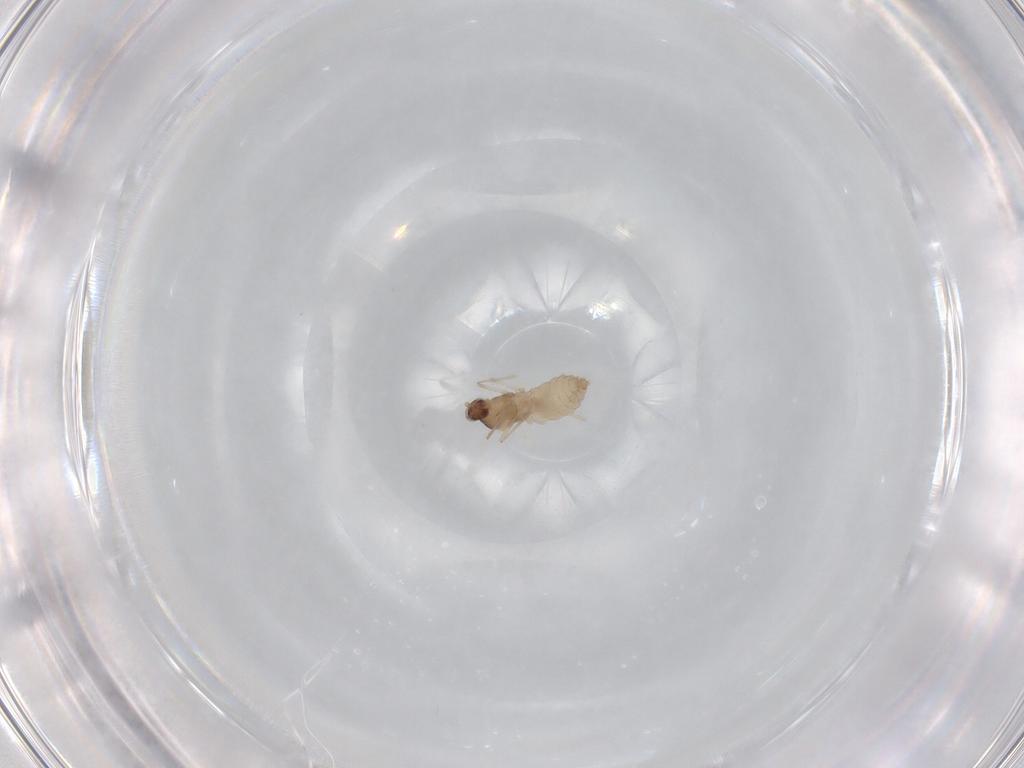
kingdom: Animalia
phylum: Arthropoda
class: Insecta
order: Diptera
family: Cecidomyiidae
